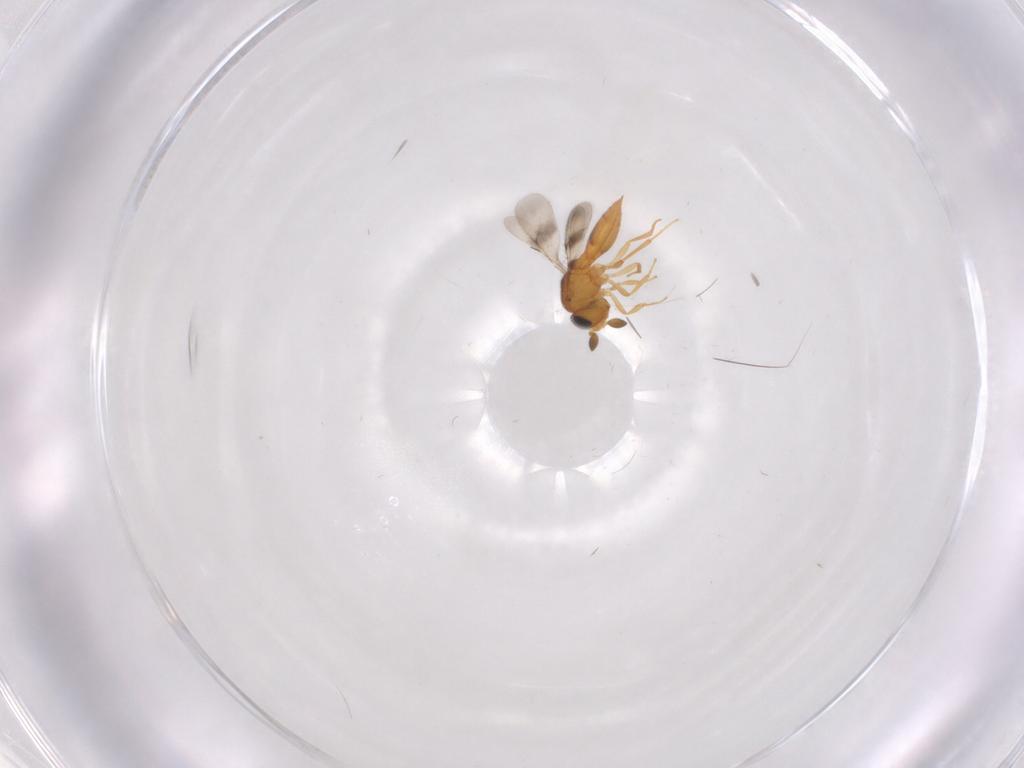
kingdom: Animalia
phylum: Arthropoda
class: Insecta
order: Hymenoptera
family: Scelionidae
